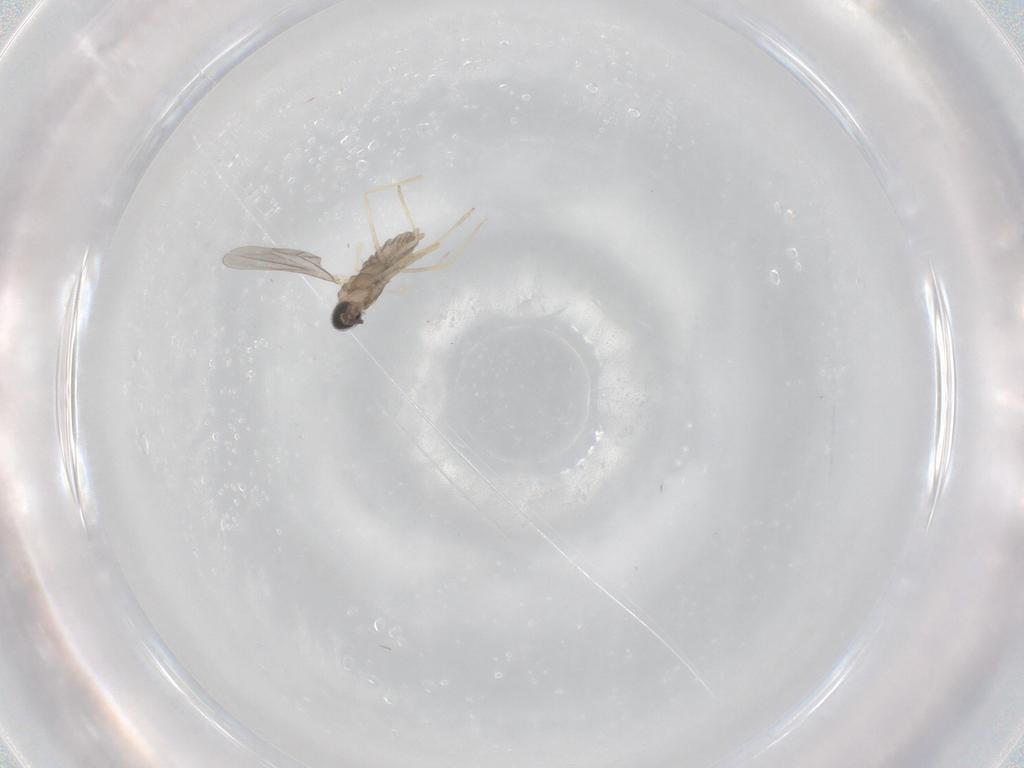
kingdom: Animalia
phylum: Arthropoda
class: Insecta
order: Diptera
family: Cecidomyiidae
